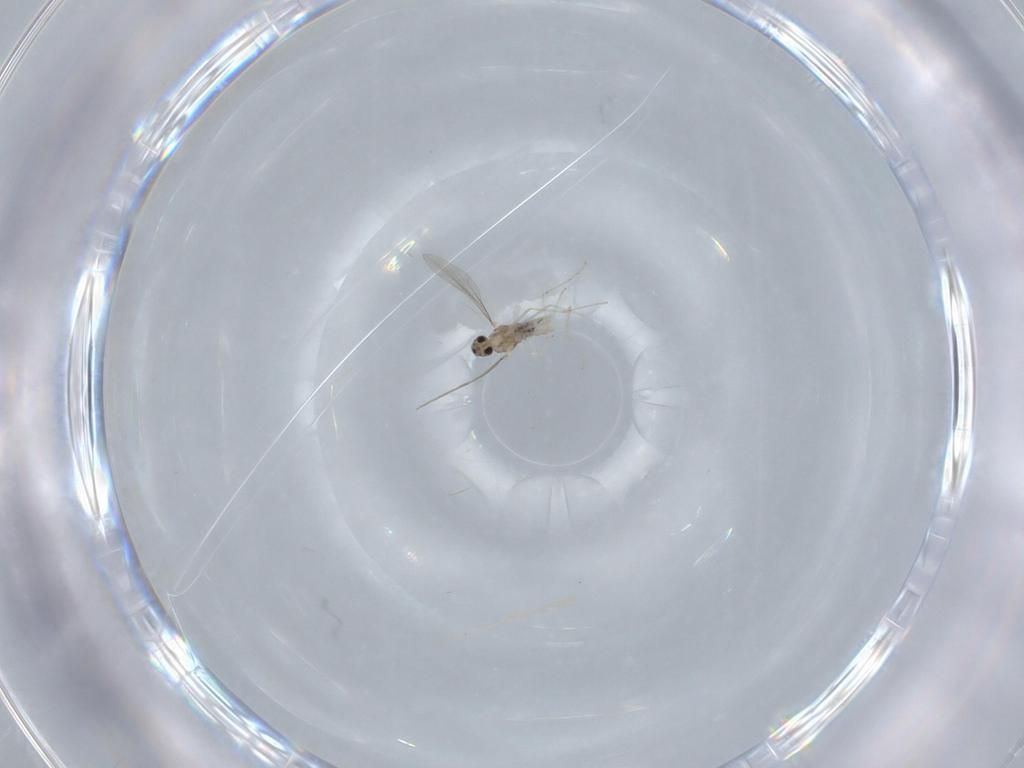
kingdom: Animalia
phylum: Arthropoda
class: Insecta
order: Diptera
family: Cecidomyiidae
